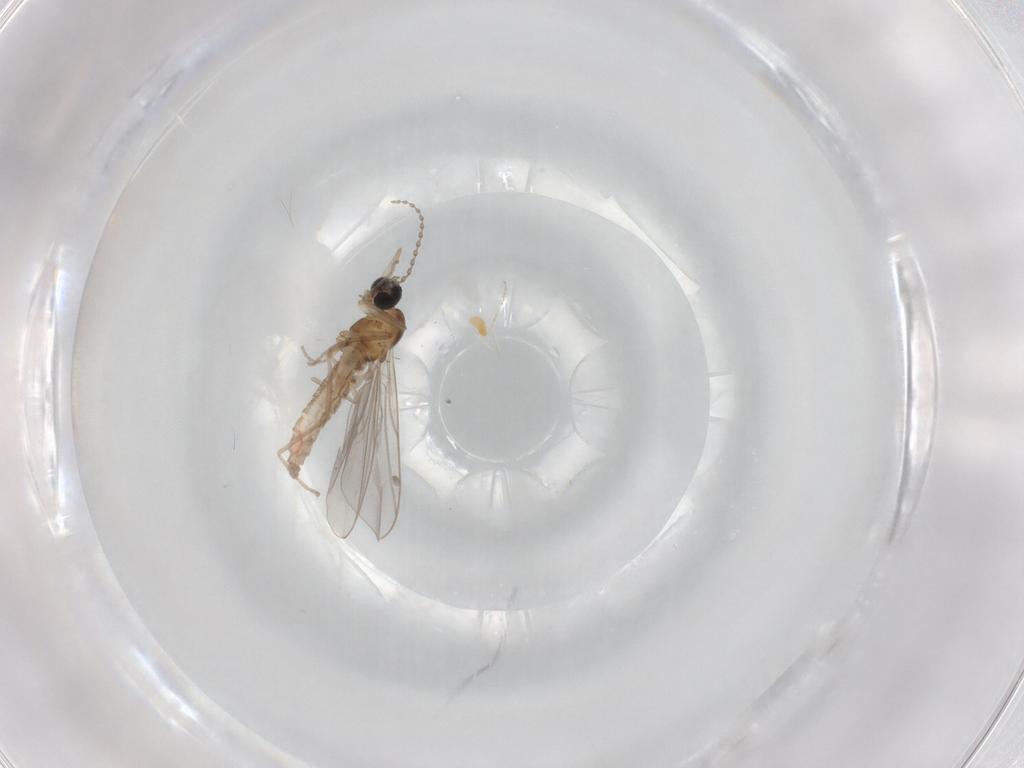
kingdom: Animalia
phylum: Arthropoda
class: Insecta
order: Diptera
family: Cecidomyiidae
